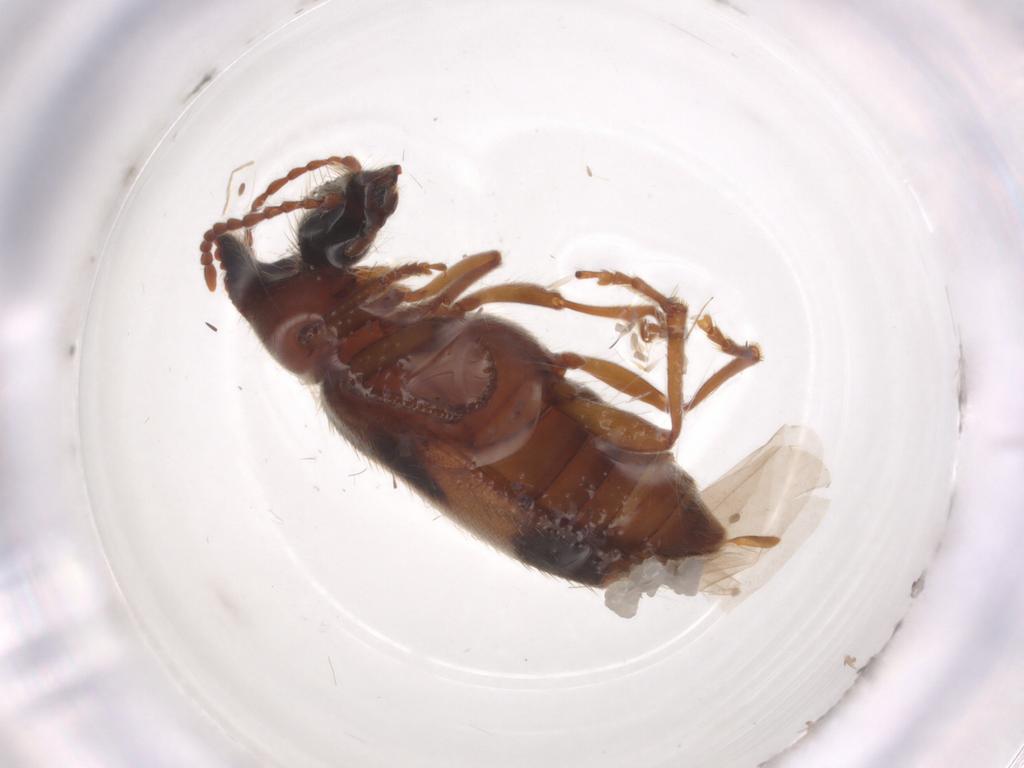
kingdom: Animalia
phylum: Arthropoda
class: Insecta
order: Coleoptera
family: Anthicidae
